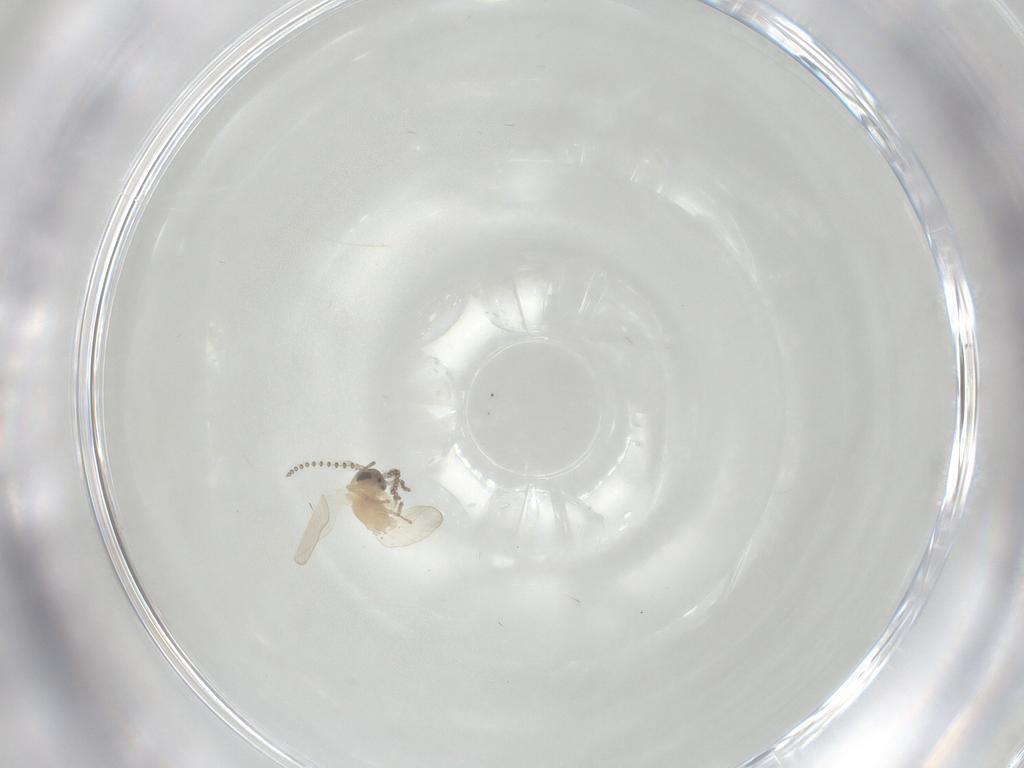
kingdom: Animalia
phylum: Arthropoda
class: Insecta
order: Diptera
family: Psychodidae
